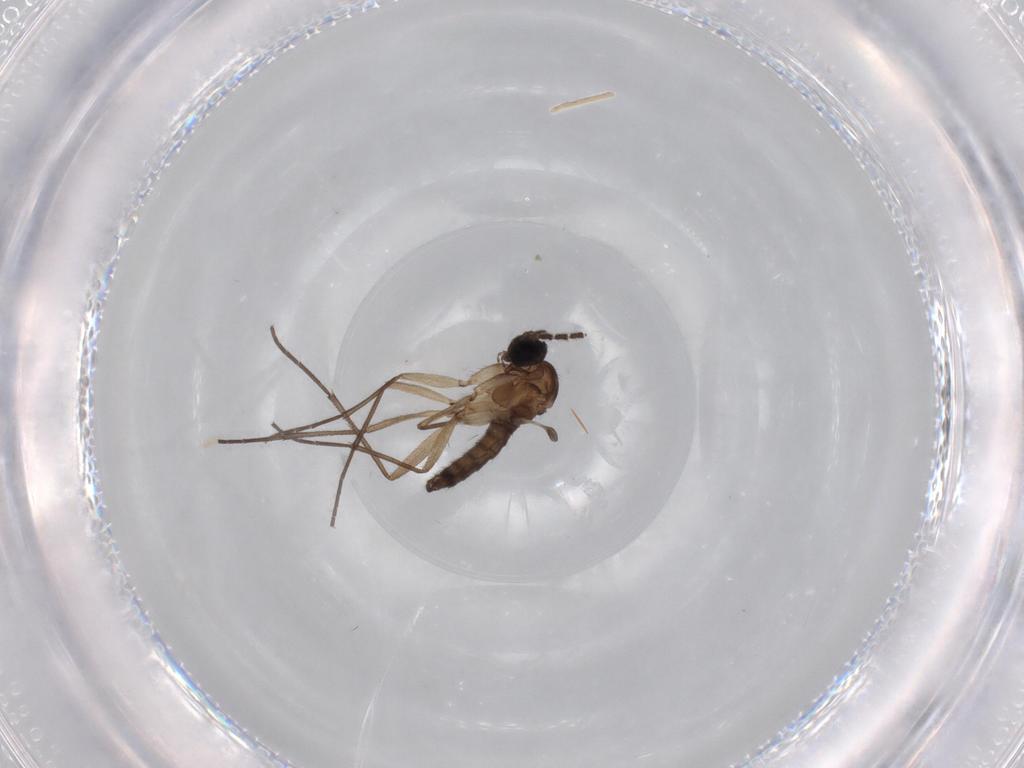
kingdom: Animalia
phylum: Arthropoda
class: Insecta
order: Diptera
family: Sciaridae
